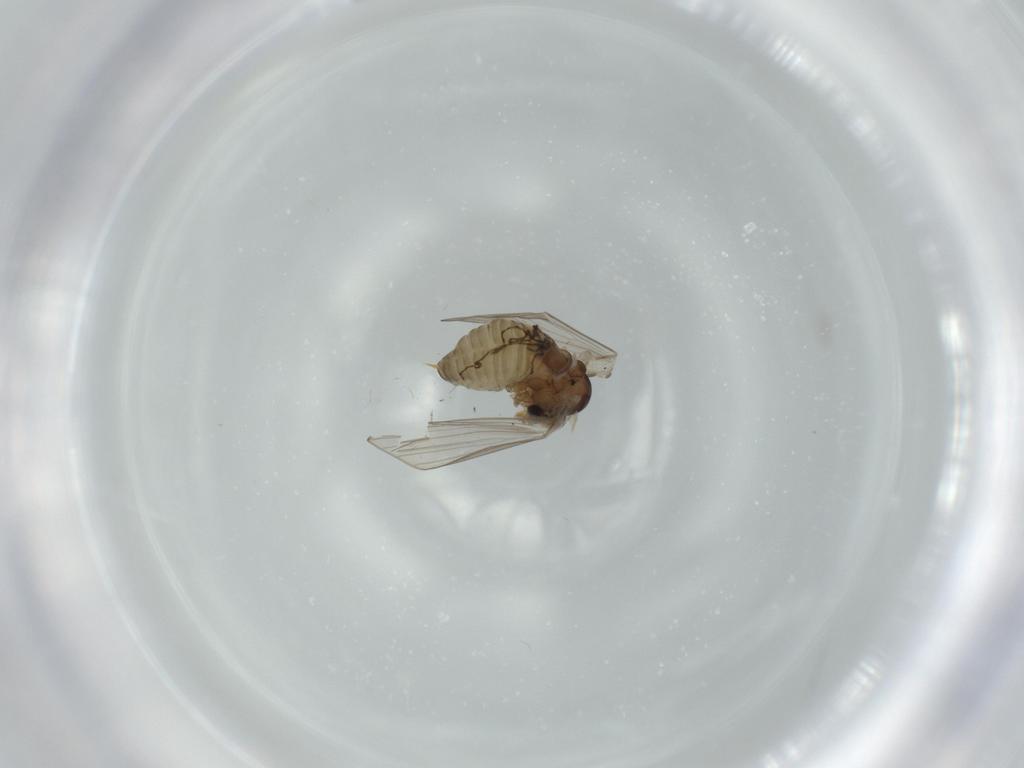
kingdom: Animalia
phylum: Arthropoda
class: Insecta
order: Diptera
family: Psychodidae
